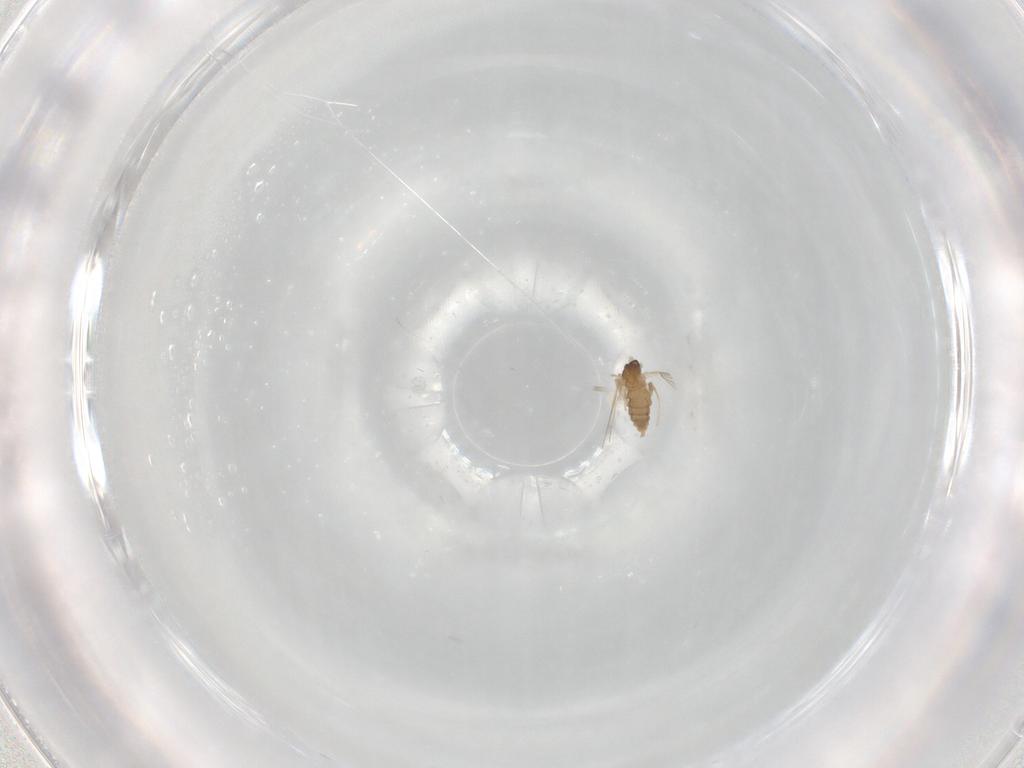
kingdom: Animalia
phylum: Arthropoda
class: Insecta
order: Diptera
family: Cecidomyiidae
